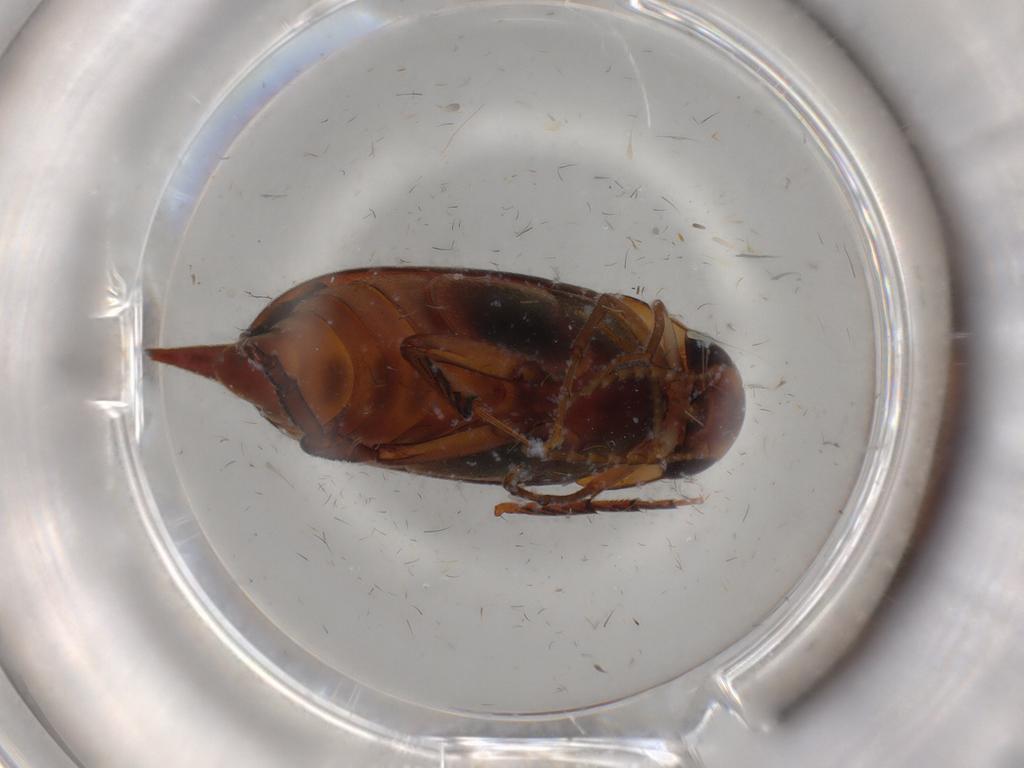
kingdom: Animalia
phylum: Arthropoda
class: Insecta
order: Coleoptera
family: Mordellidae
